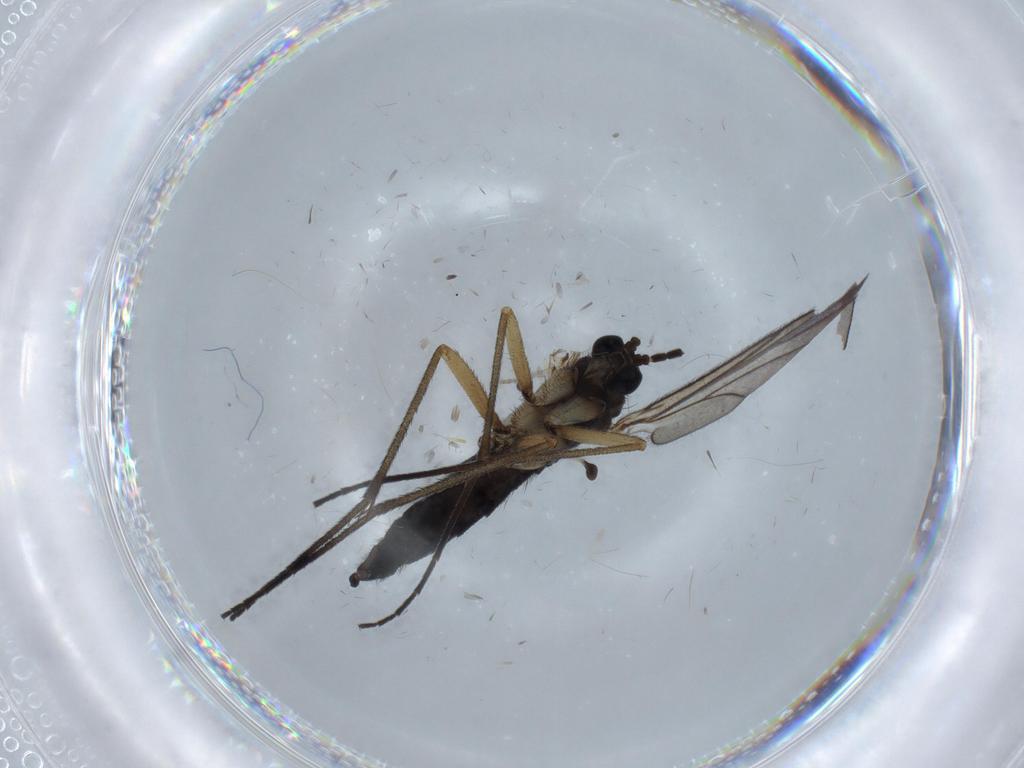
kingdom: Animalia
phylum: Arthropoda
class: Insecta
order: Diptera
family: Sciaridae
